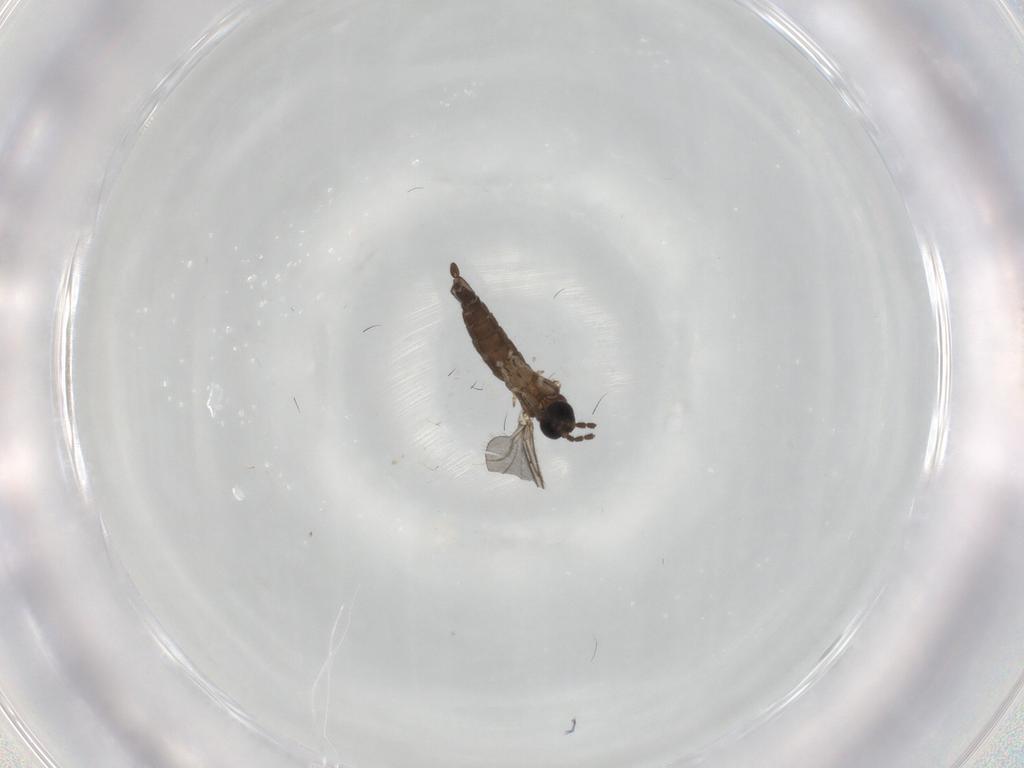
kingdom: Animalia
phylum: Arthropoda
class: Insecta
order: Diptera
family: Sciaridae
